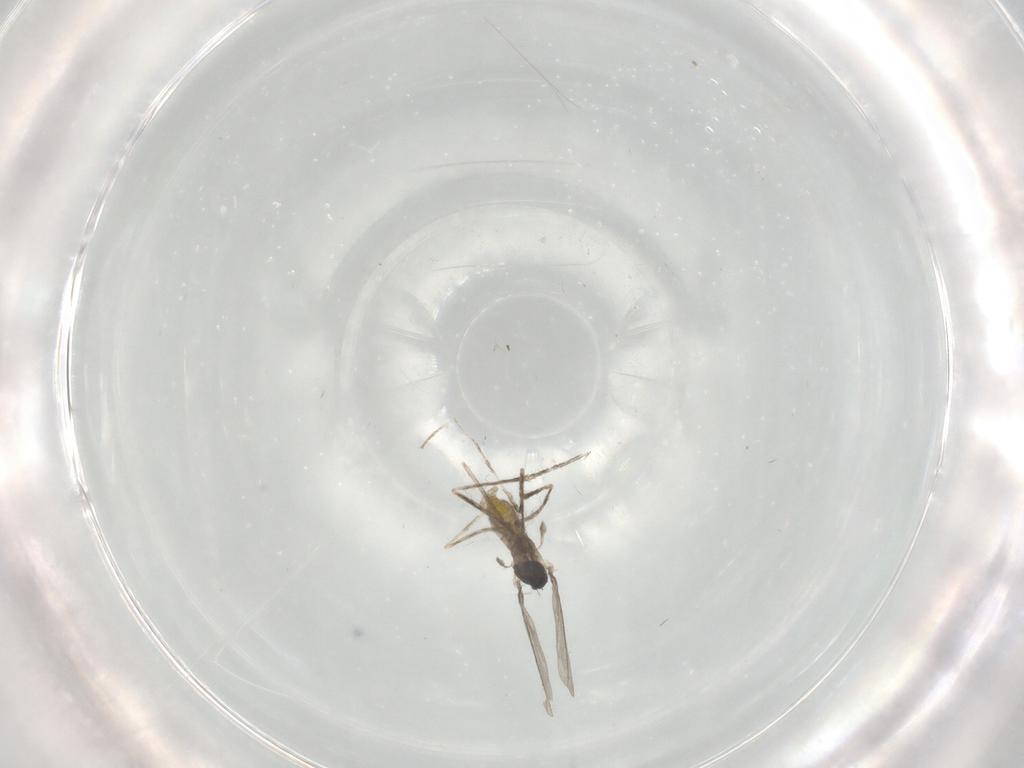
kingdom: Animalia
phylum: Arthropoda
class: Insecta
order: Diptera
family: Cecidomyiidae
